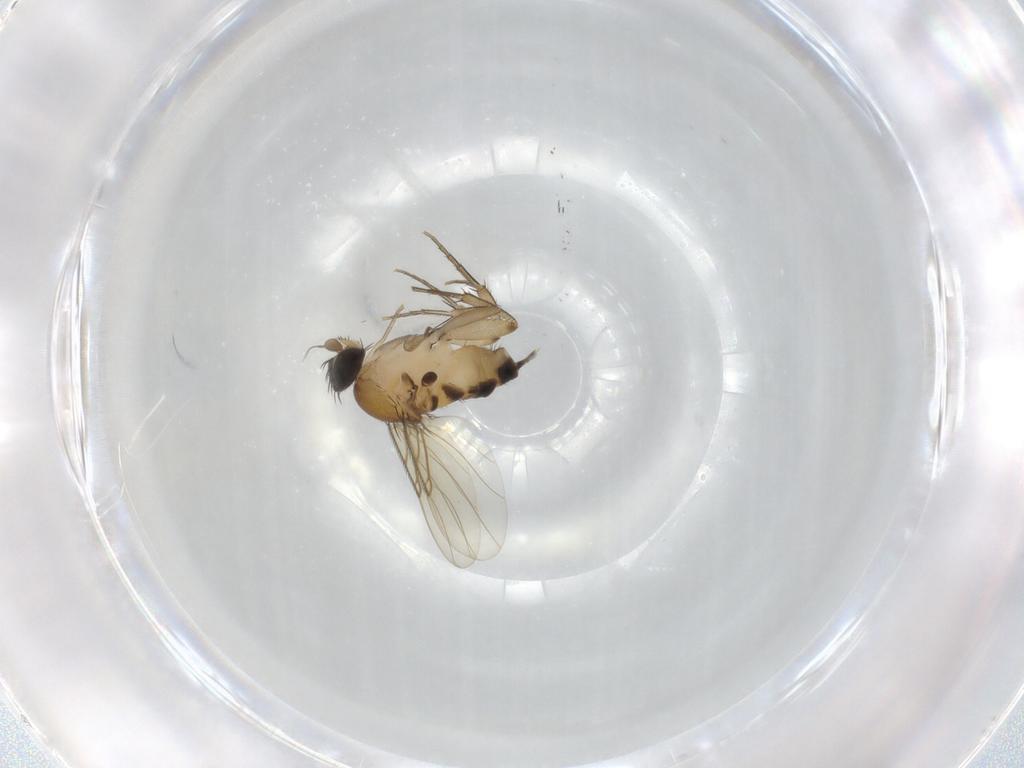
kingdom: Animalia
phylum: Arthropoda
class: Insecta
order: Diptera
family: Phoridae
